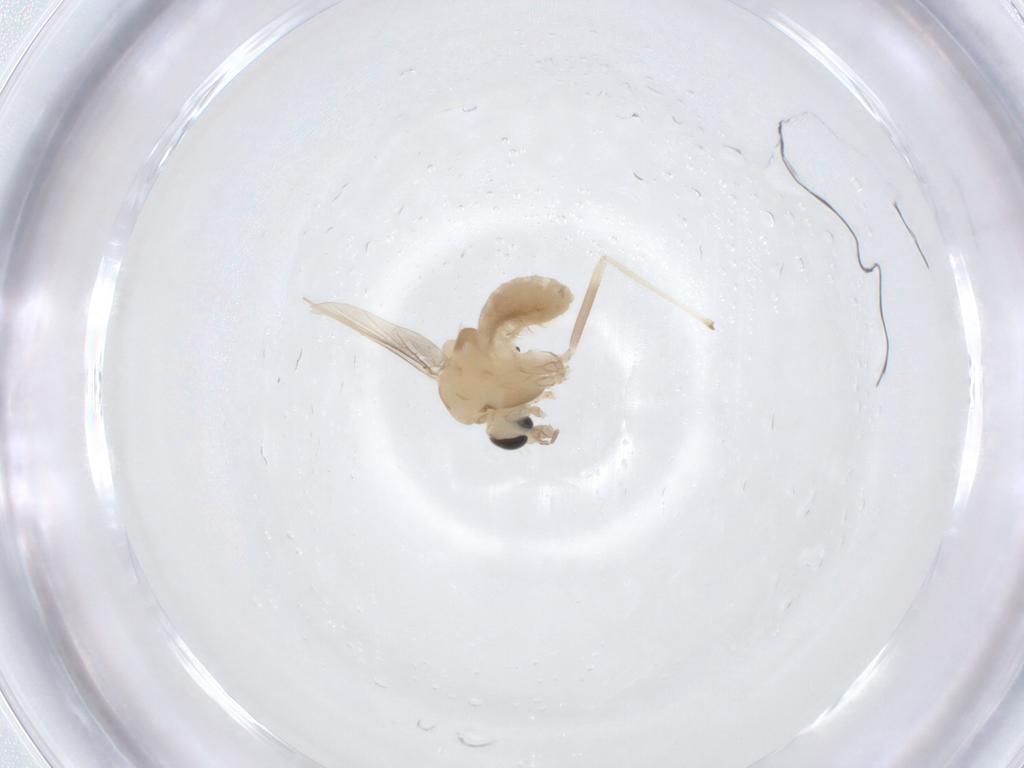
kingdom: Animalia
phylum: Arthropoda
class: Insecta
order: Diptera
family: Chironomidae
